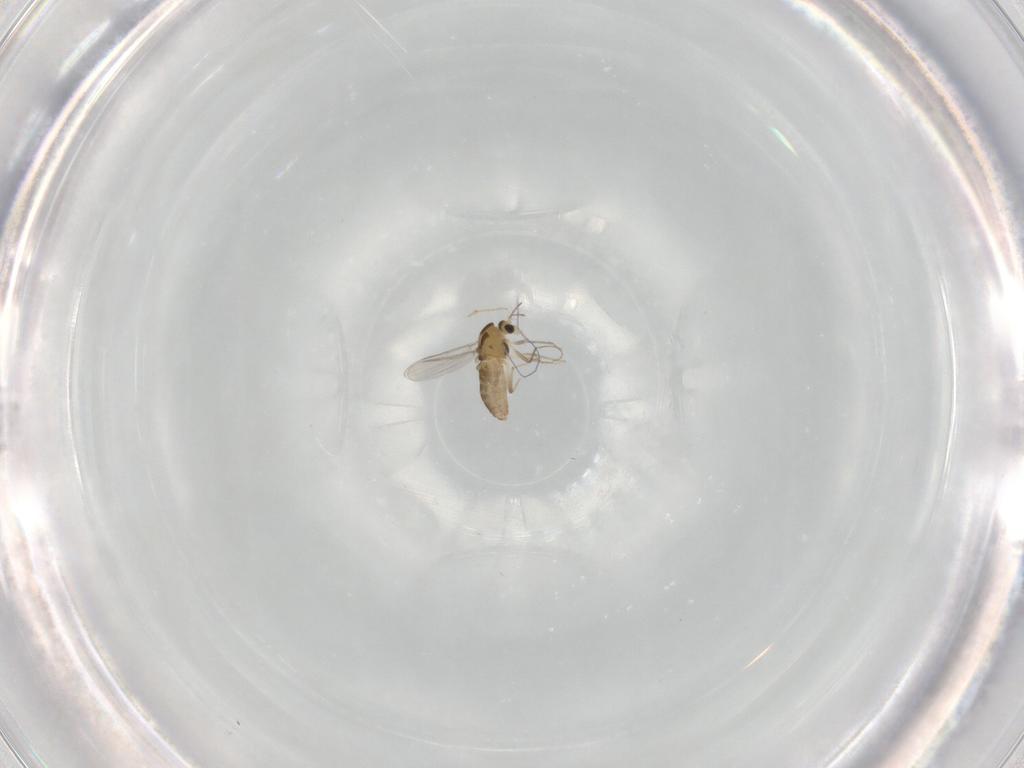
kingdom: Animalia
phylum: Arthropoda
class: Insecta
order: Diptera
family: Chironomidae
